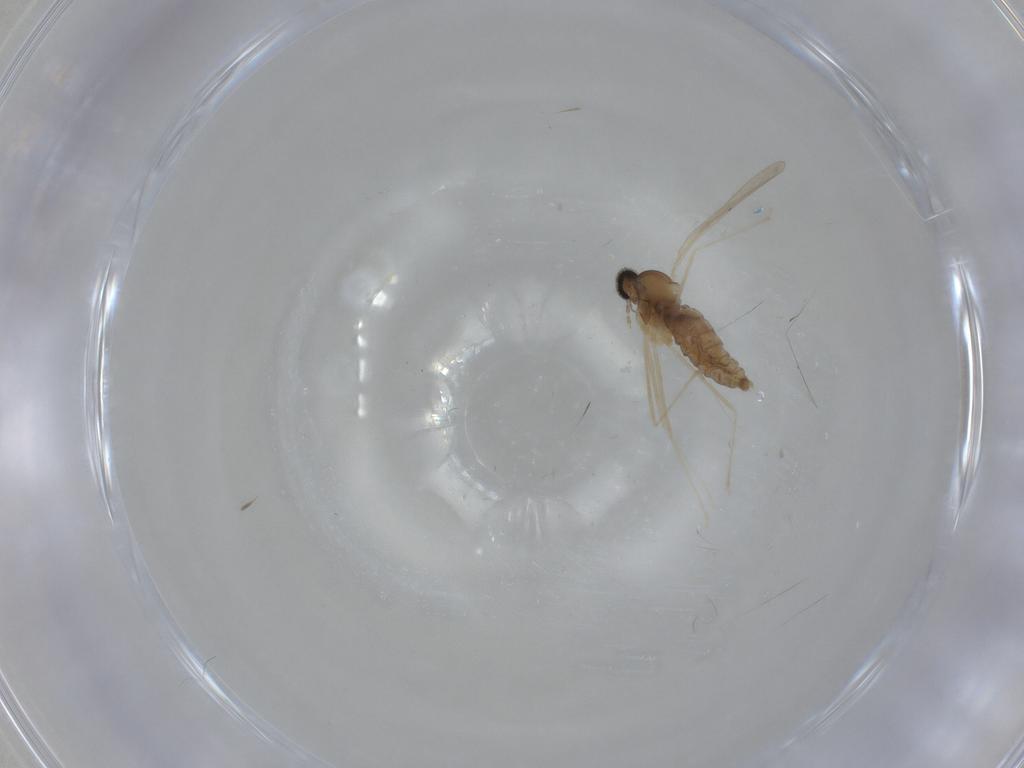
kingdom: Animalia
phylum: Arthropoda
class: Insecta
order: Diptera
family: Cecidomyiidae
